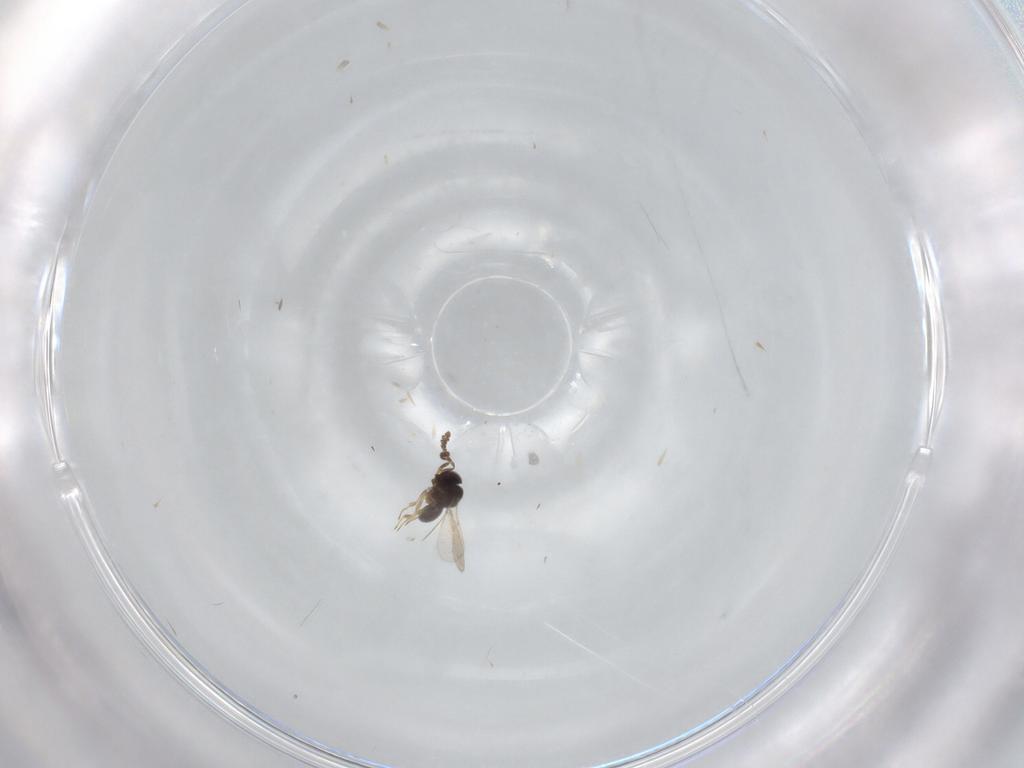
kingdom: Animalia
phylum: Arthropoda
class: Insecta
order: Hymenoptera
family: Scelionidae
